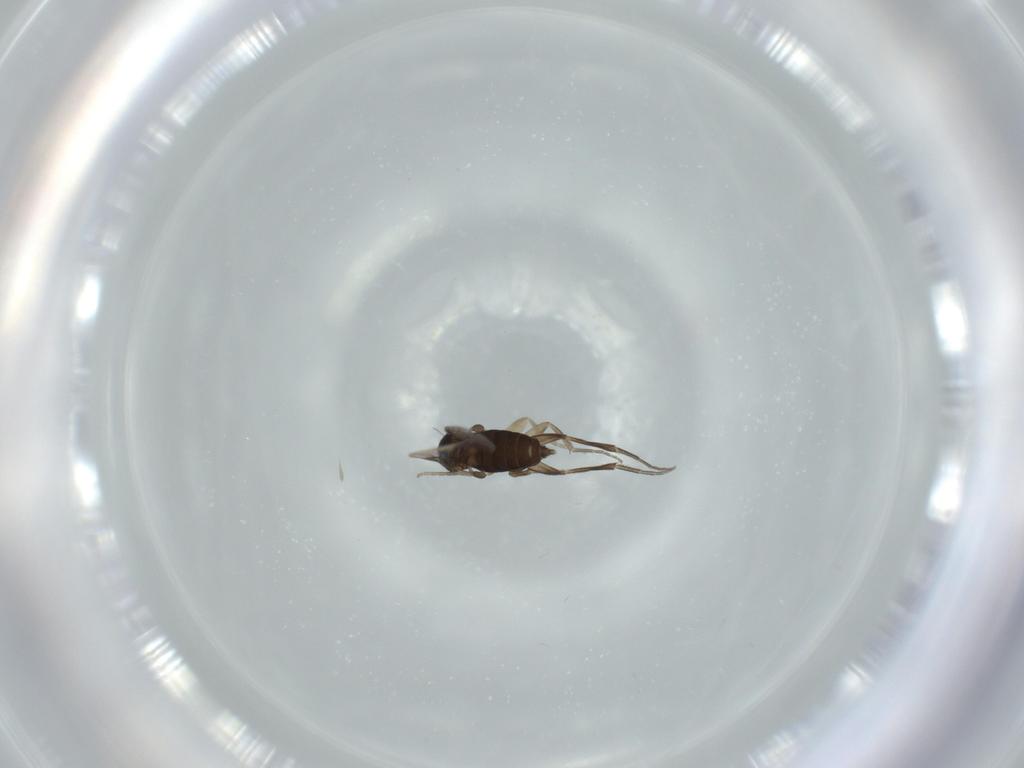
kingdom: Animalia
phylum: Arthropoda
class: Insecta
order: Diptera
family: Phoridae
